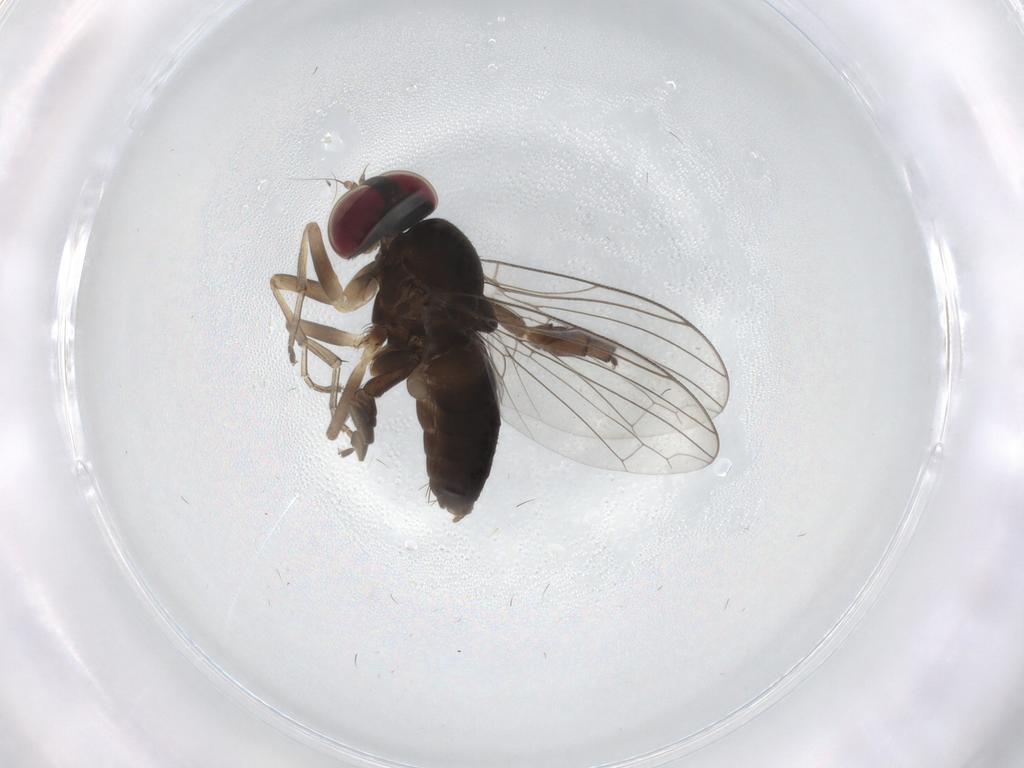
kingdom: Animalia
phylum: Arthropoda
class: Insecta
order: Diptera
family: Platypezidae
